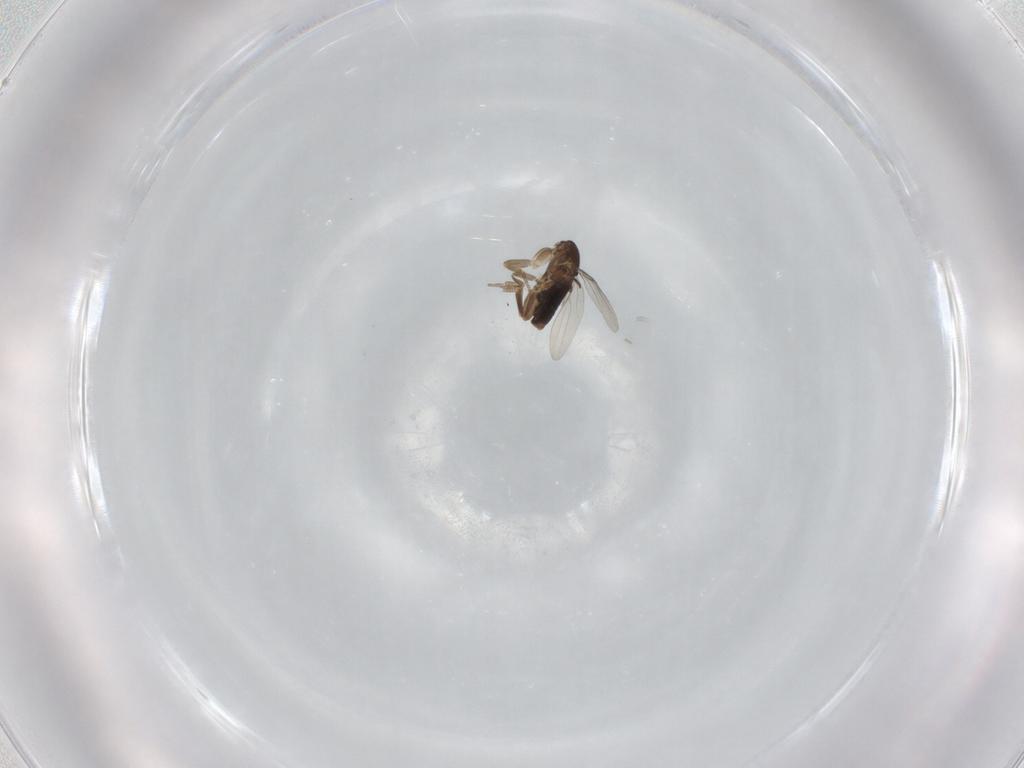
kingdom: Animalia
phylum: Arthropoda
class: Insecta
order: Diptera
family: Phoridae
